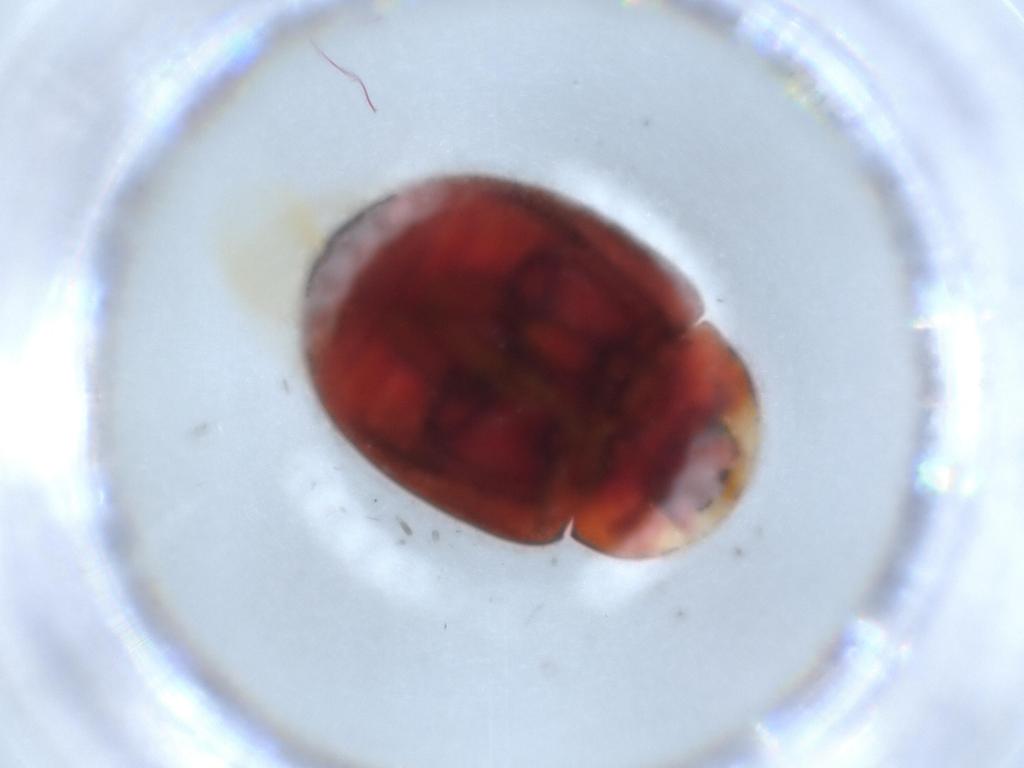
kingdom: Animalia
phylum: Arthropoda
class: Insecta
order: Coleoptera
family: Coccinellidae
